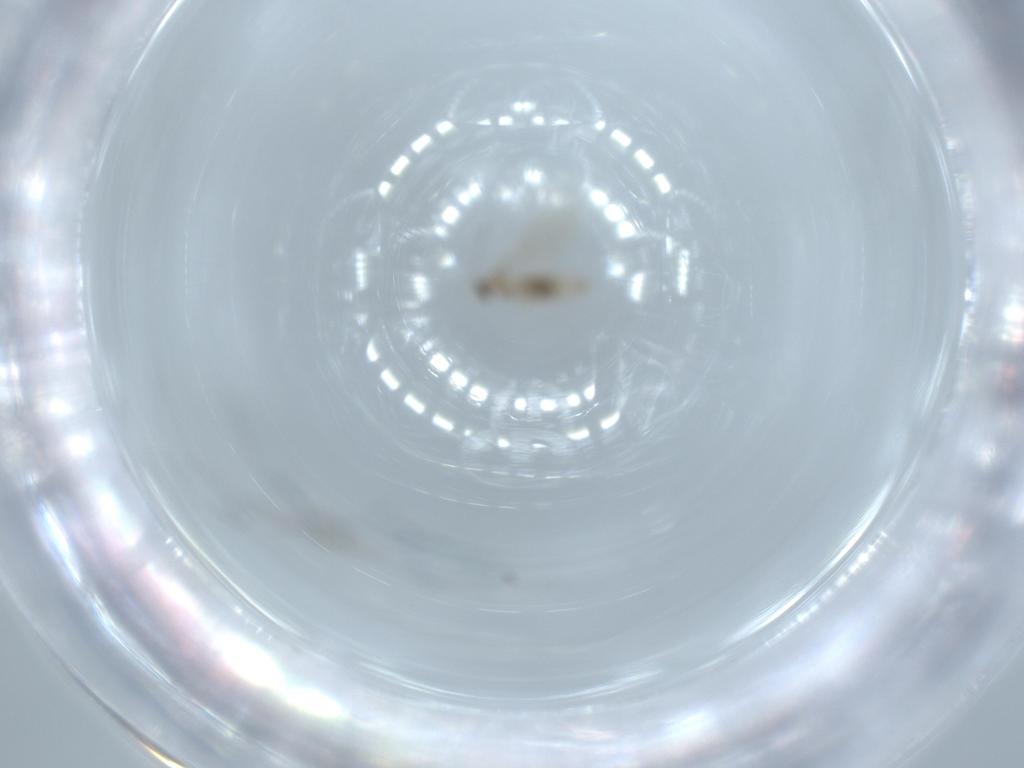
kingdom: Animalia
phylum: Arthropoda
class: Insecta
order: Diptera
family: Cecidomyiidae
